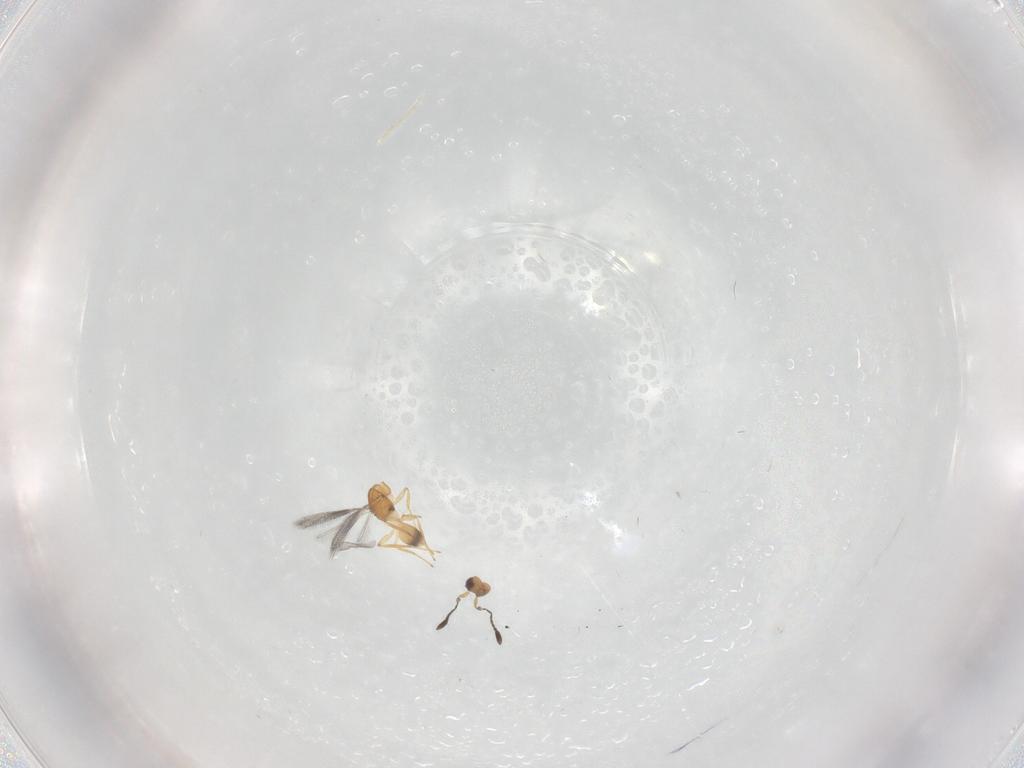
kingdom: Animalia
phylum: Arthropoda
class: Insecta
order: Hymenoptera
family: Mymaridae
